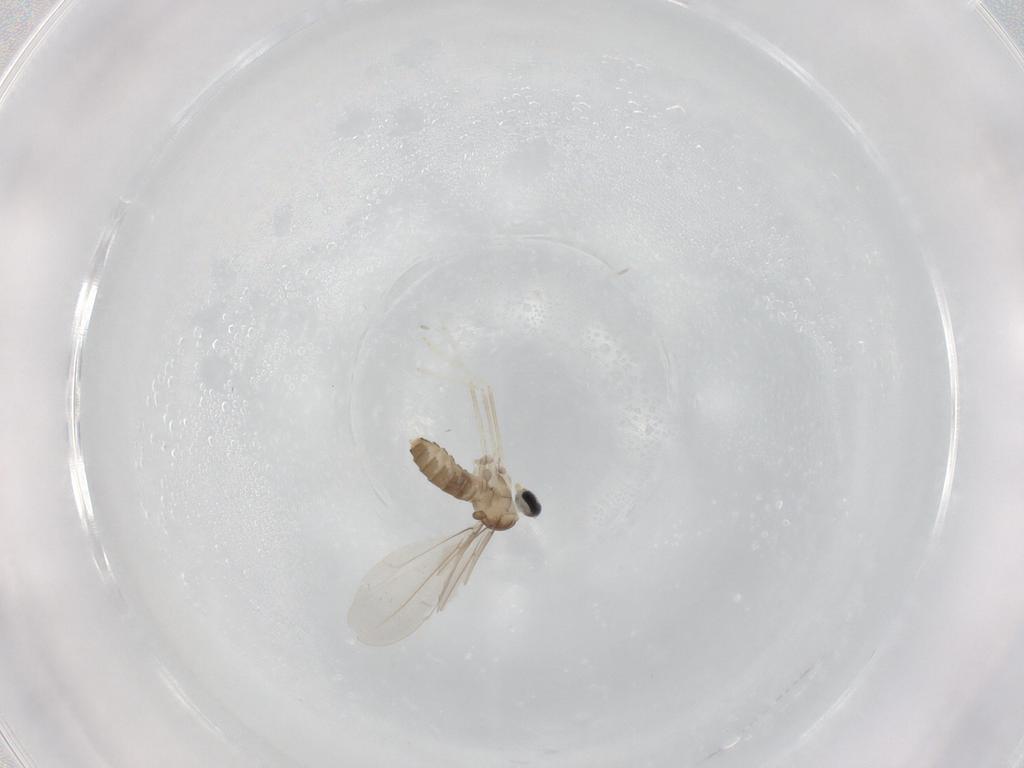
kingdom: Animalia
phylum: Arthropoda
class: Insecta
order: Diptera
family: Cecidomyiidae
